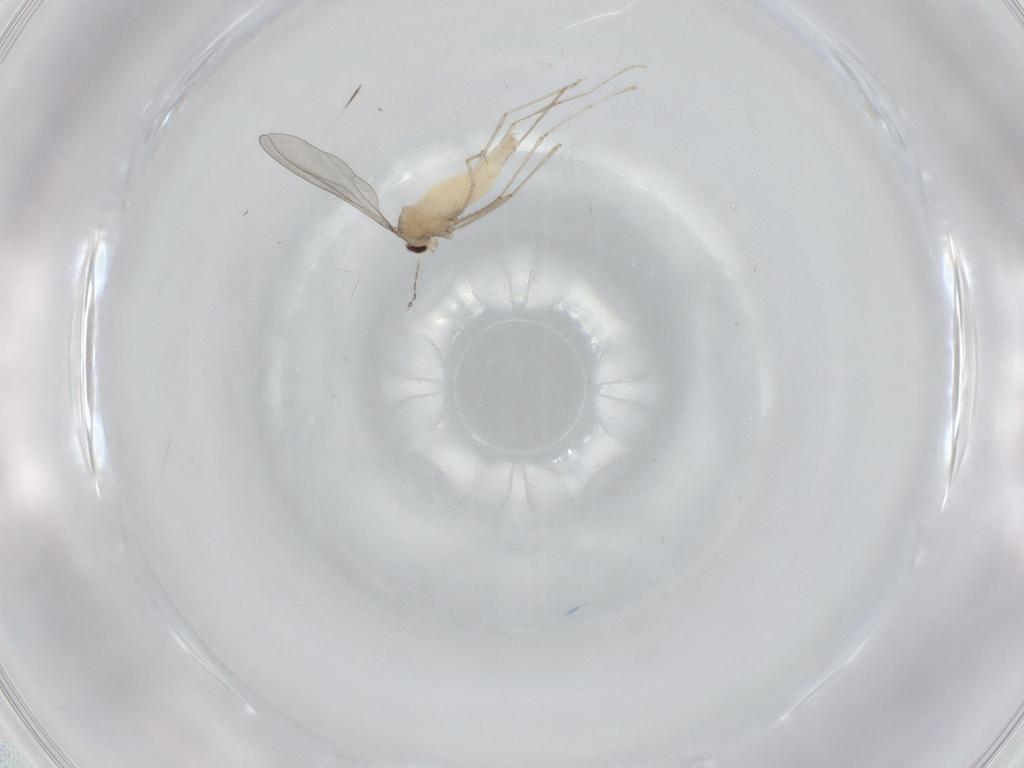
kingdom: Animalia
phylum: Arthropoda
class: Insecta
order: Diptera
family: Cecidomyiidae
